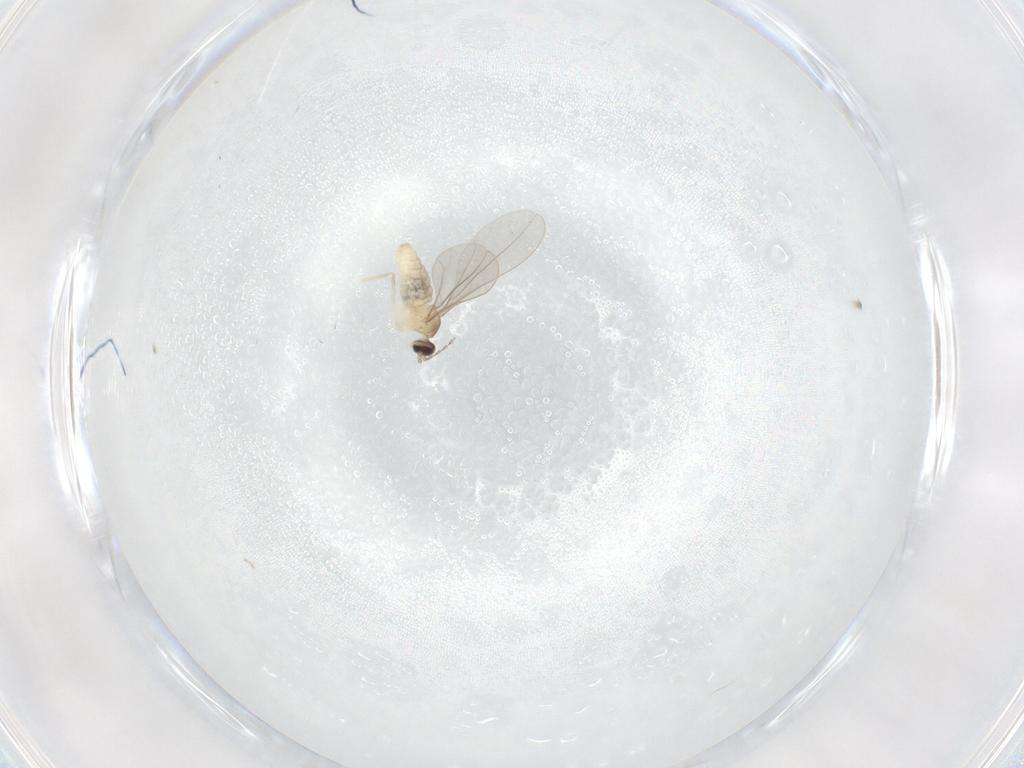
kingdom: Animalia
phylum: Arthropoda
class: Insecta
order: Diptera
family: Cecidomyiidae
